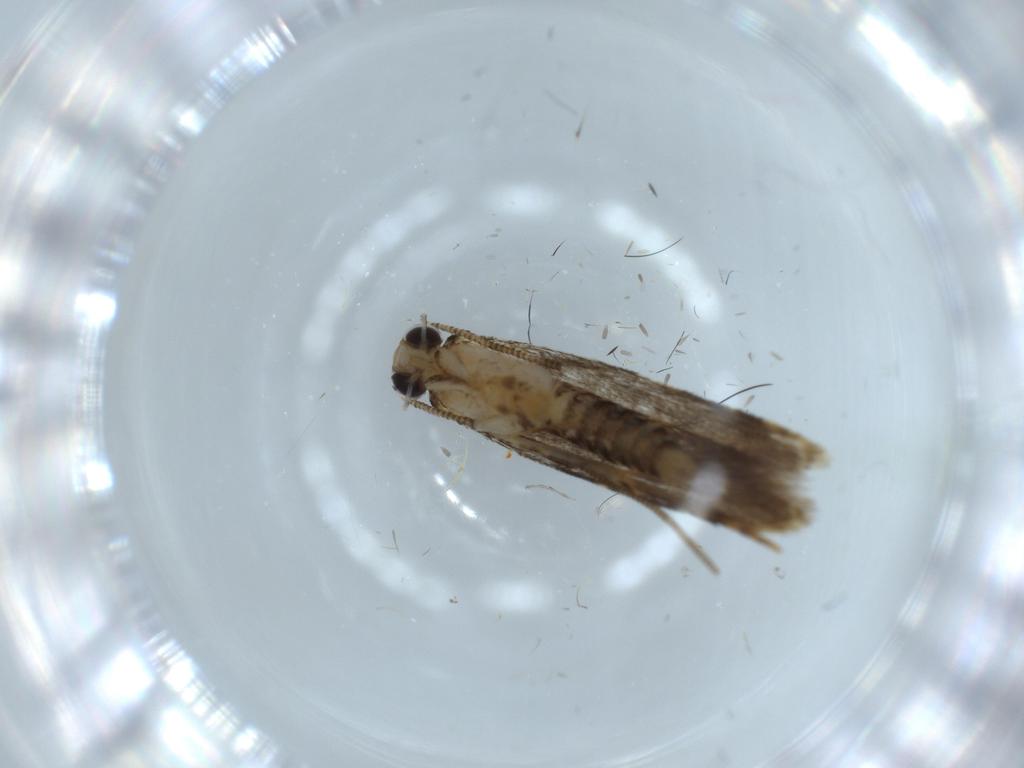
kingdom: Animalia
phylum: Arthropoda
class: Insecta
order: Lepidoptera
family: Tineidae
